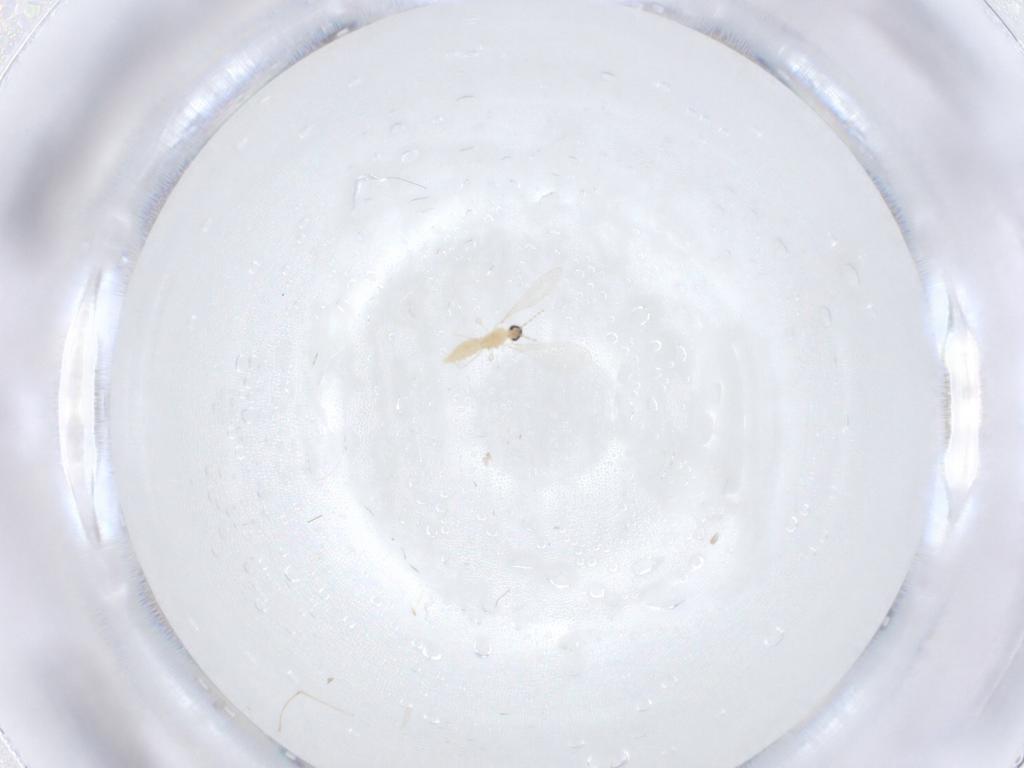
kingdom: Animalia
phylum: Arthropoda
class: Insecta
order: Diptera
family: Cecidomyiidae
